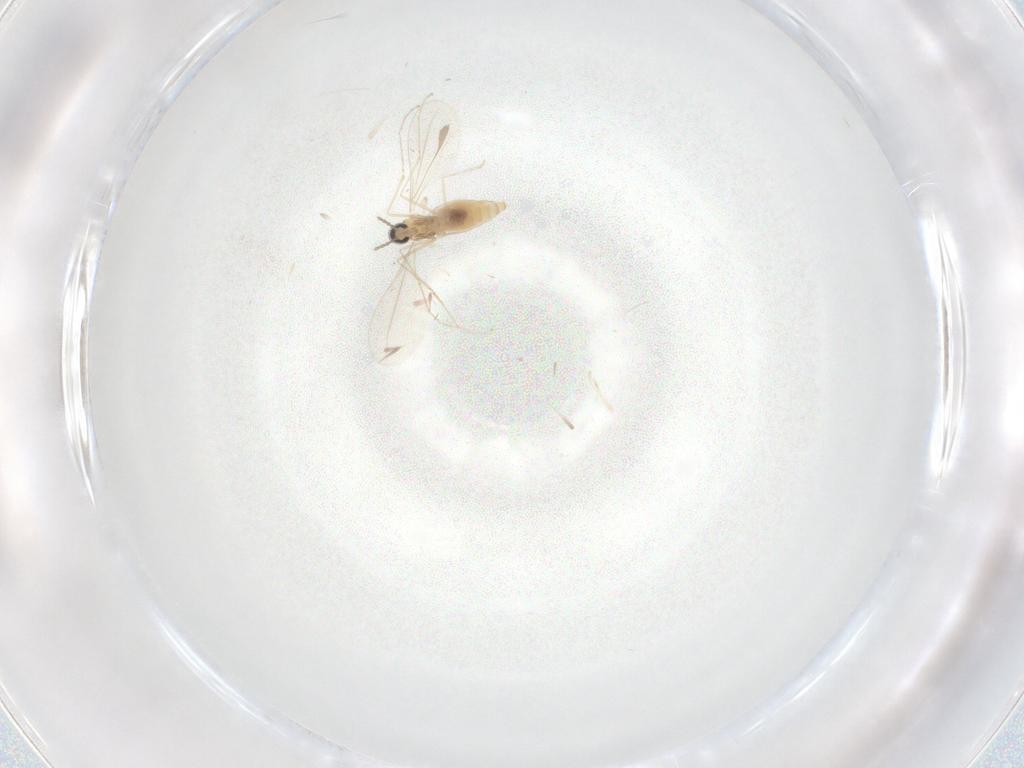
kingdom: Animalia
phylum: Arthropoda
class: Insecta
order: Diptera
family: Cecidomyiidae
